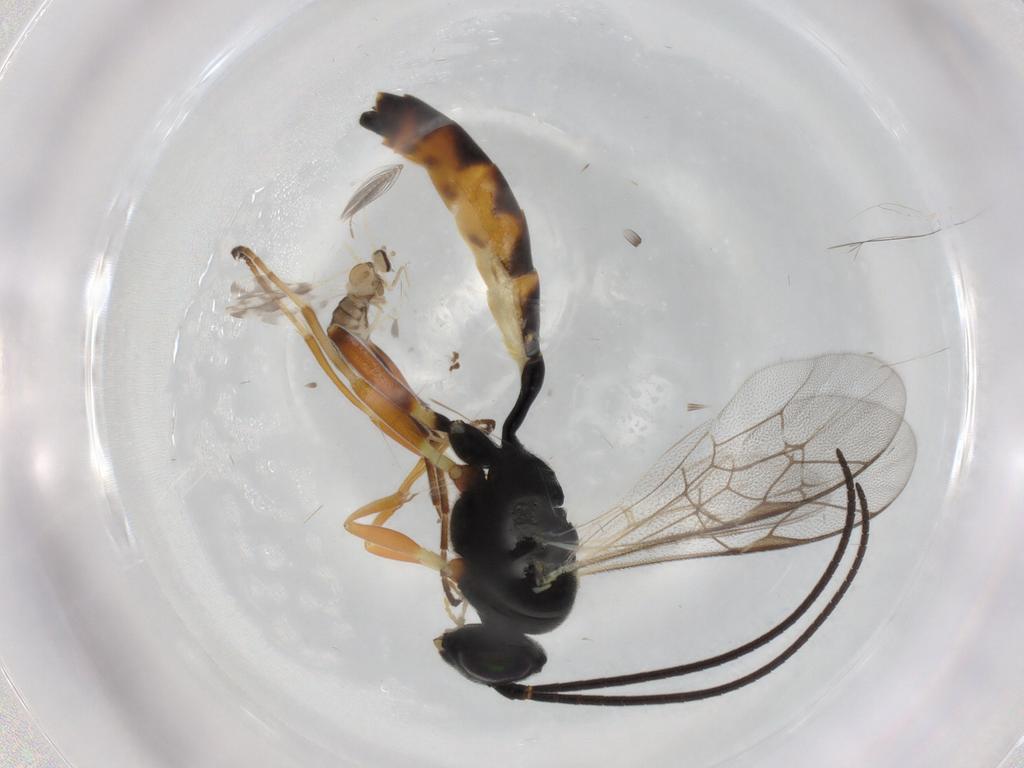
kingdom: Animalia
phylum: Arthropoda
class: Insecta
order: Hymenoptera
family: Ichneumonidae
